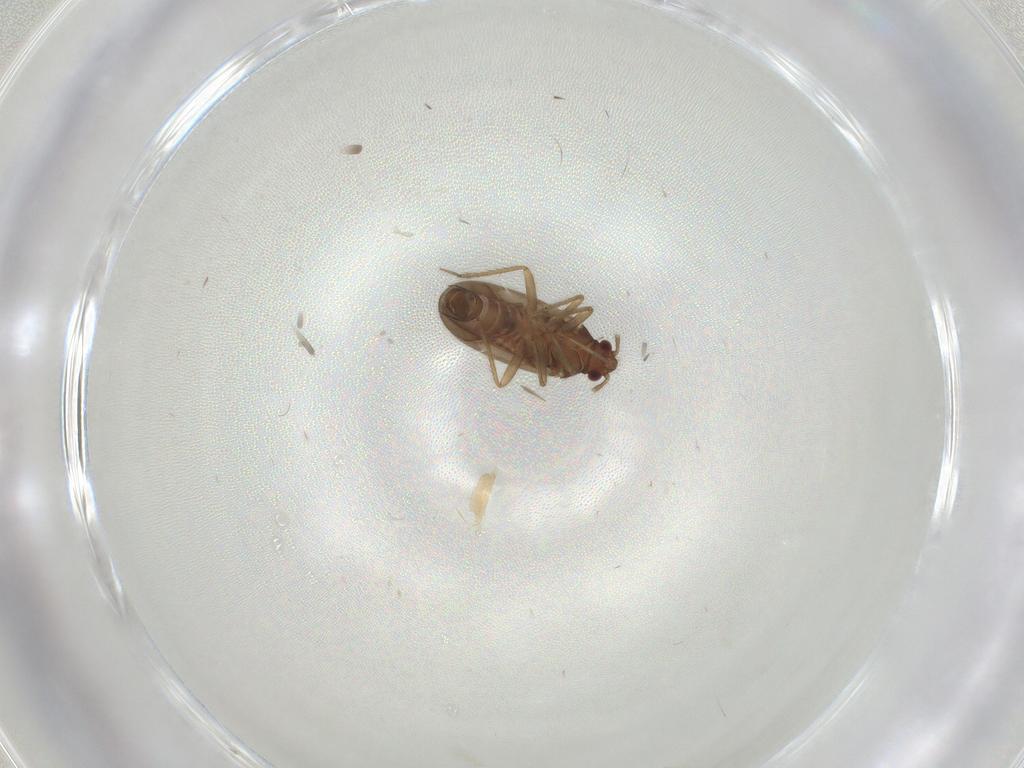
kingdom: Animalia
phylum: Arthropoda
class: Insecta
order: Hemiptera
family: Ceratocombidae
